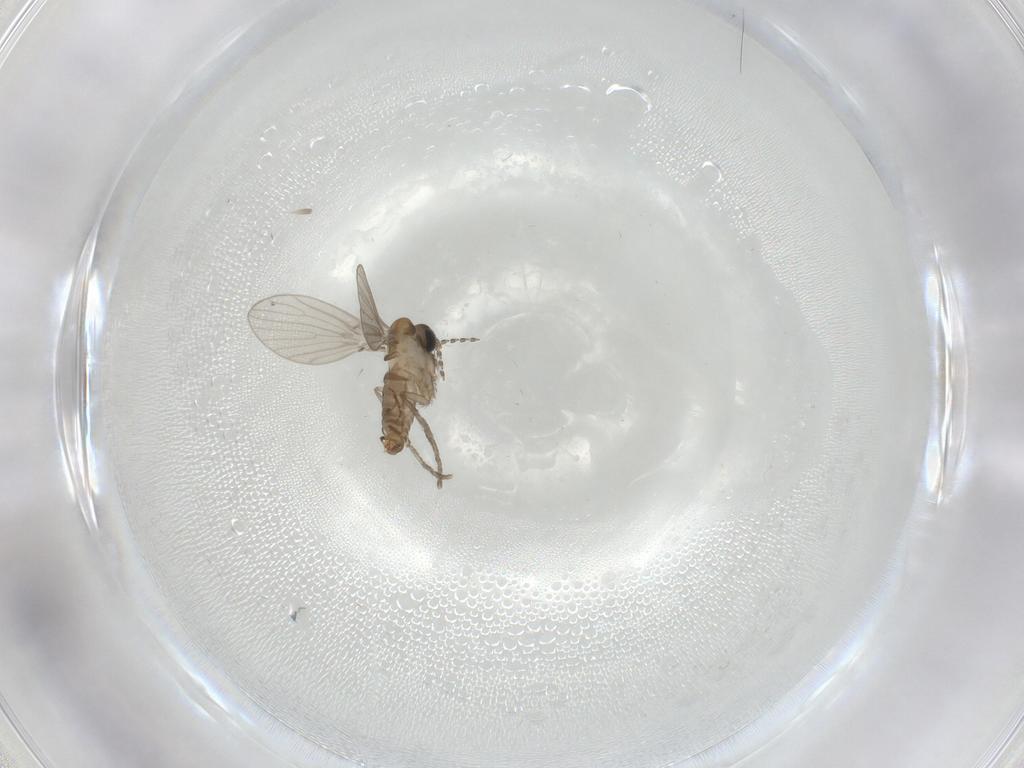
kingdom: Animalia
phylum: Arthropoda
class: Insecta
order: Diptera
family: Psychodidae
